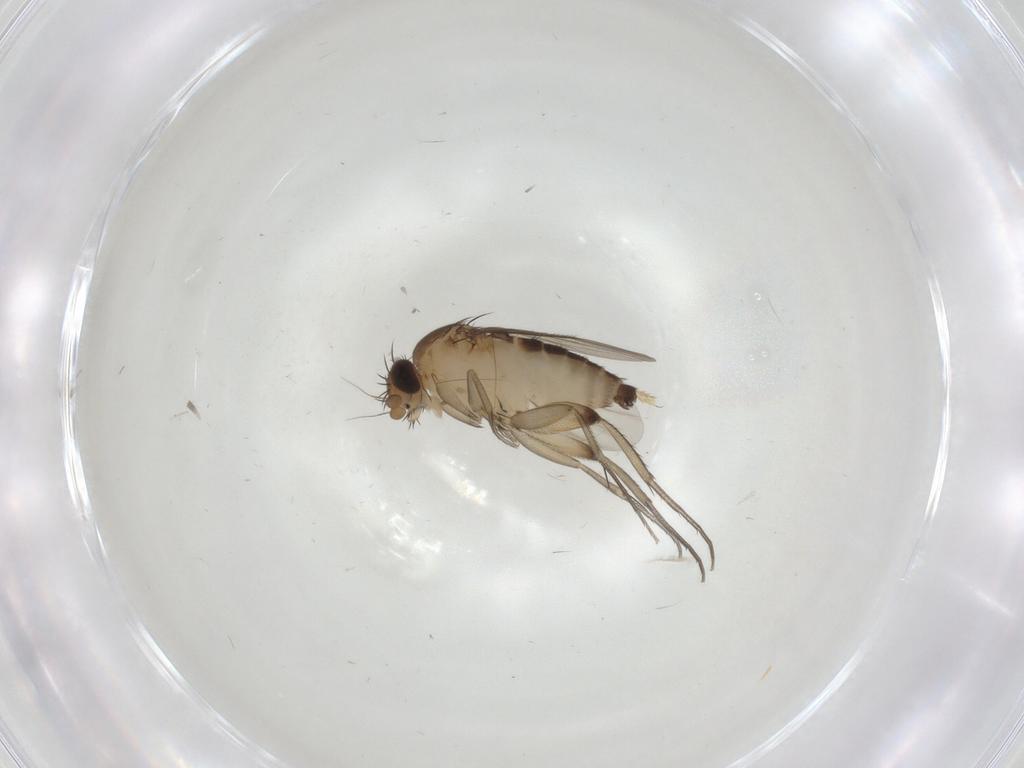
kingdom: Animalia
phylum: Arthropoda
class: Insecta
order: Diptera
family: Phoridae
